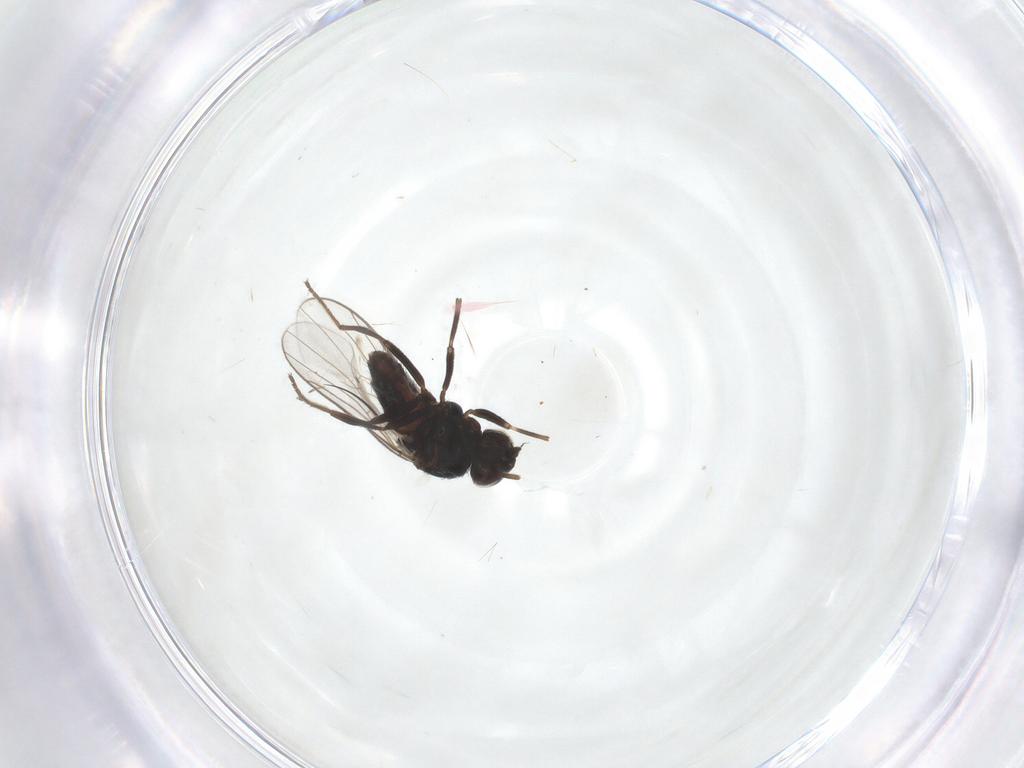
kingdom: Animalia
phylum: Arthropoda
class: Insecta
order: Diptera
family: Chloropidae
